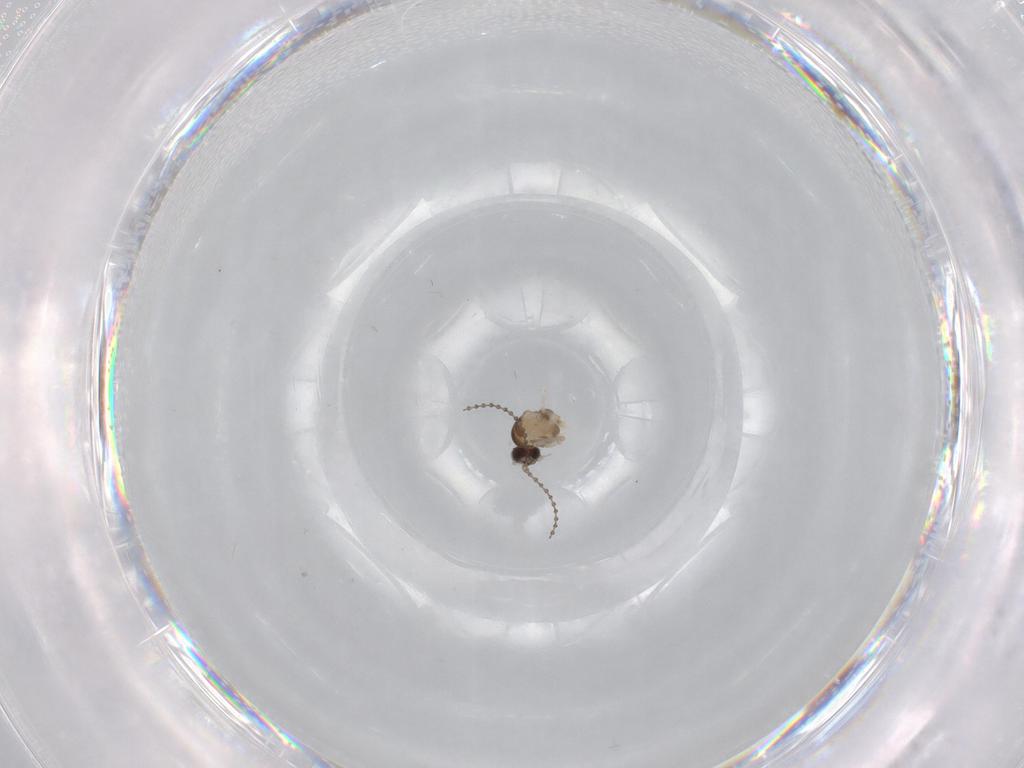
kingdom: Animalia
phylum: Arthropoda
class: Insecta
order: Diptera
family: Cecidomyiidae
